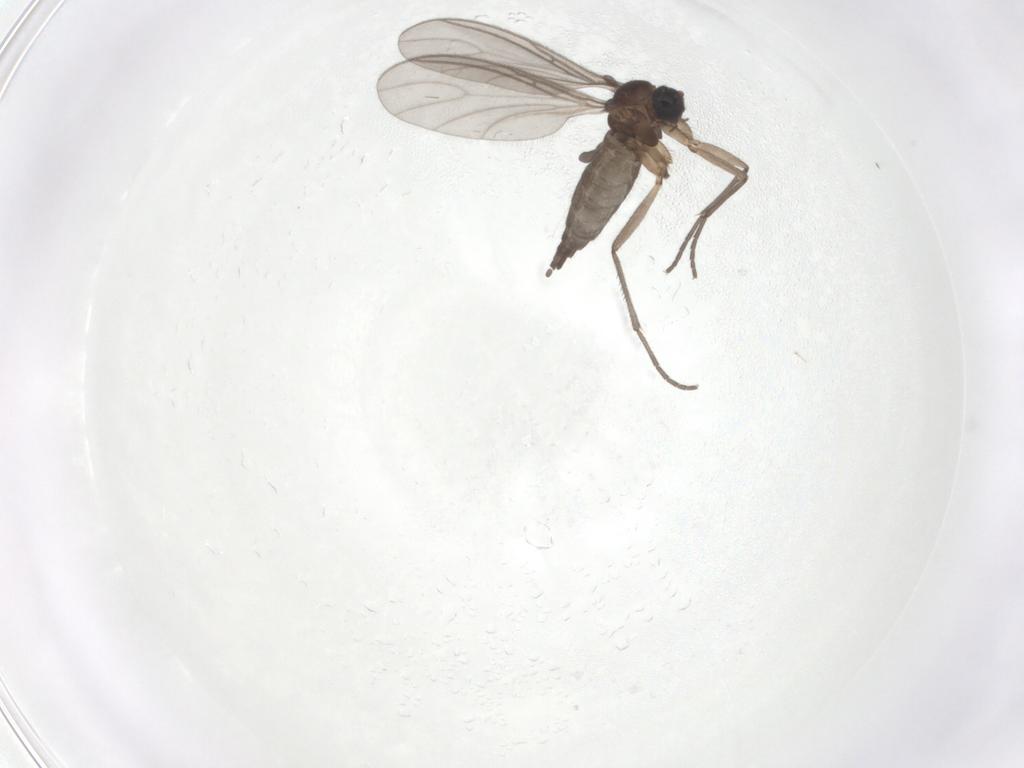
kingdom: Animalia
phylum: Arthropoda
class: Insecta
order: Diptera
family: Sciaridae
